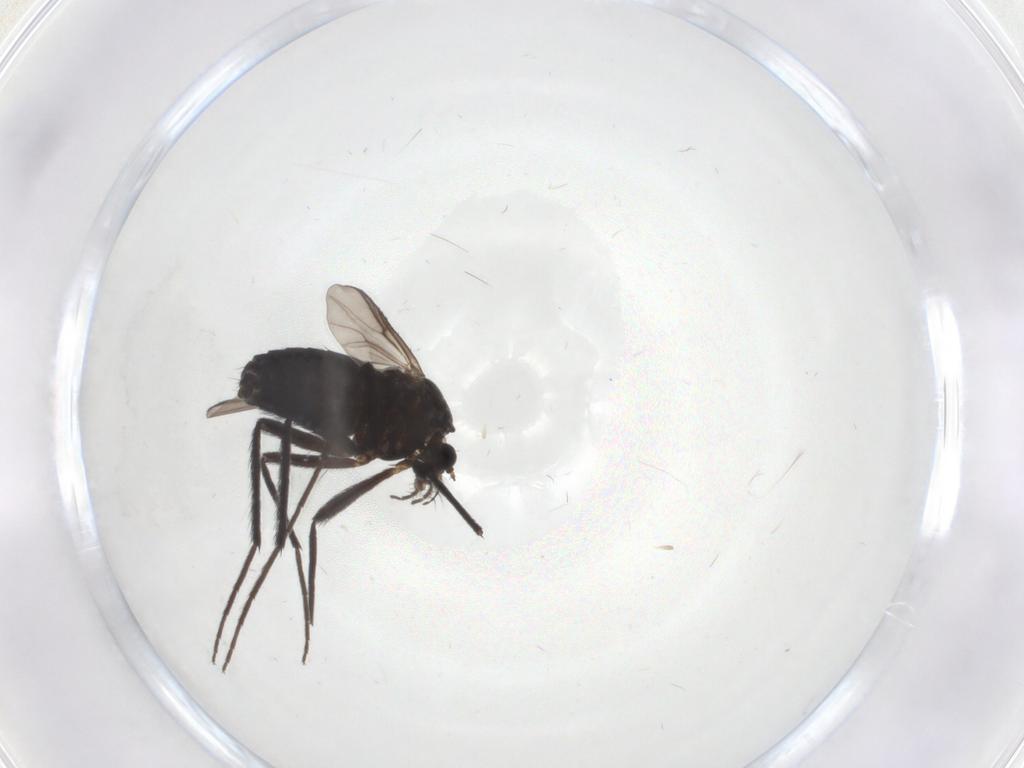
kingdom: Animalia
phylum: Arthropoda
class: Insecta
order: Diptera
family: Chironomidae
